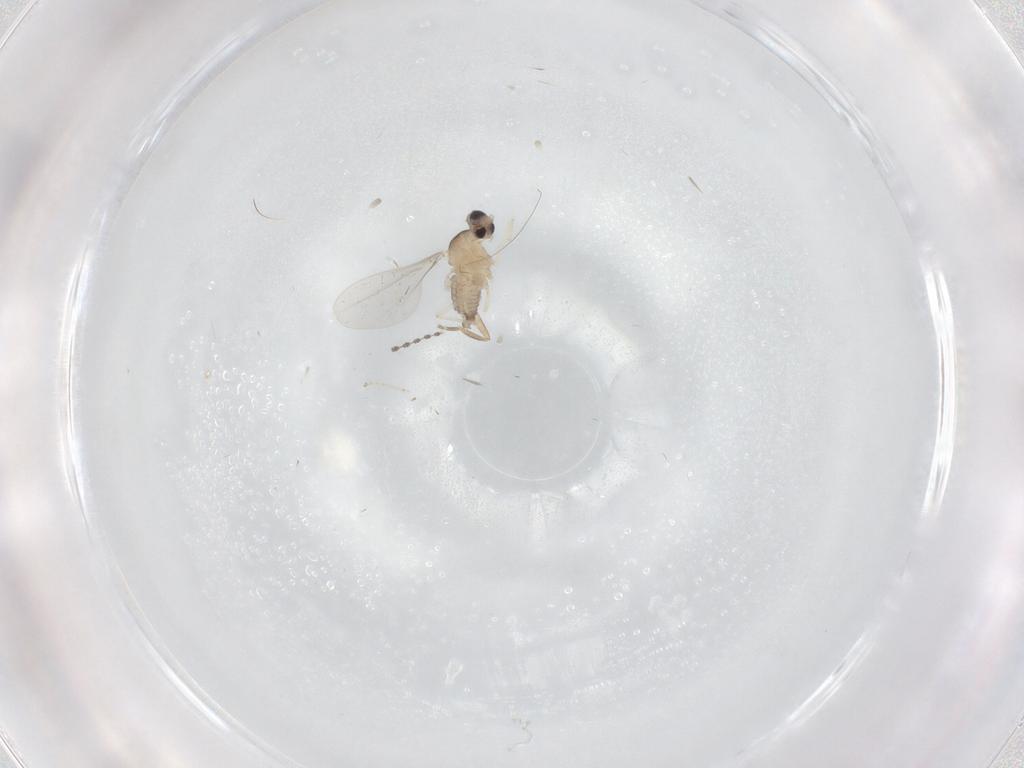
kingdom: Animalia
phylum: Arthropoda
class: Insecta
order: Diptera
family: Cecidomyiidae
